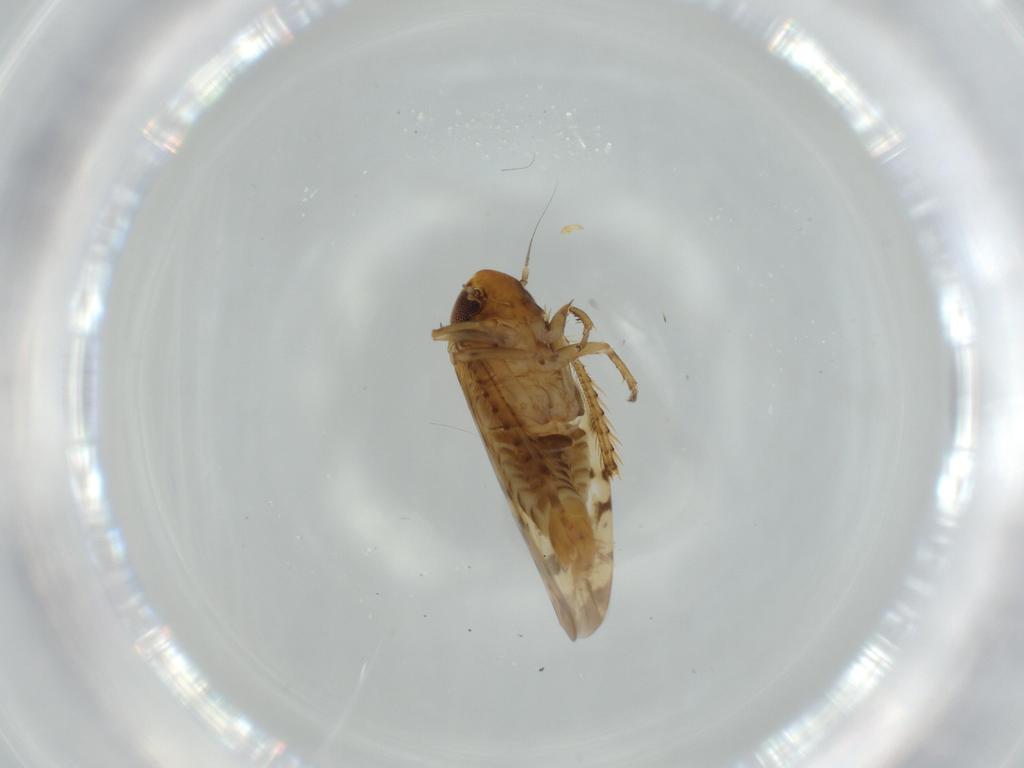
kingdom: Animalia
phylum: Arthropoda
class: Insecta
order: Hemiptera
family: Cicadellidae
